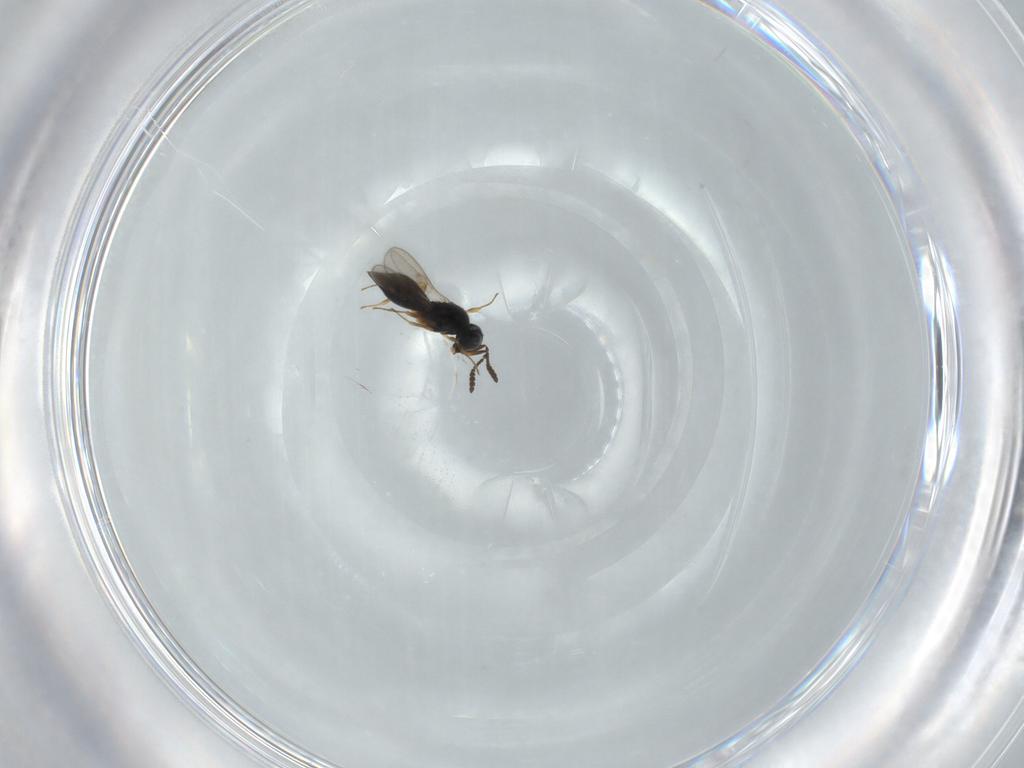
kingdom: Animalia
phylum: Arthropoda
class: Insecta
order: Hymenoptera
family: Scelionidae
